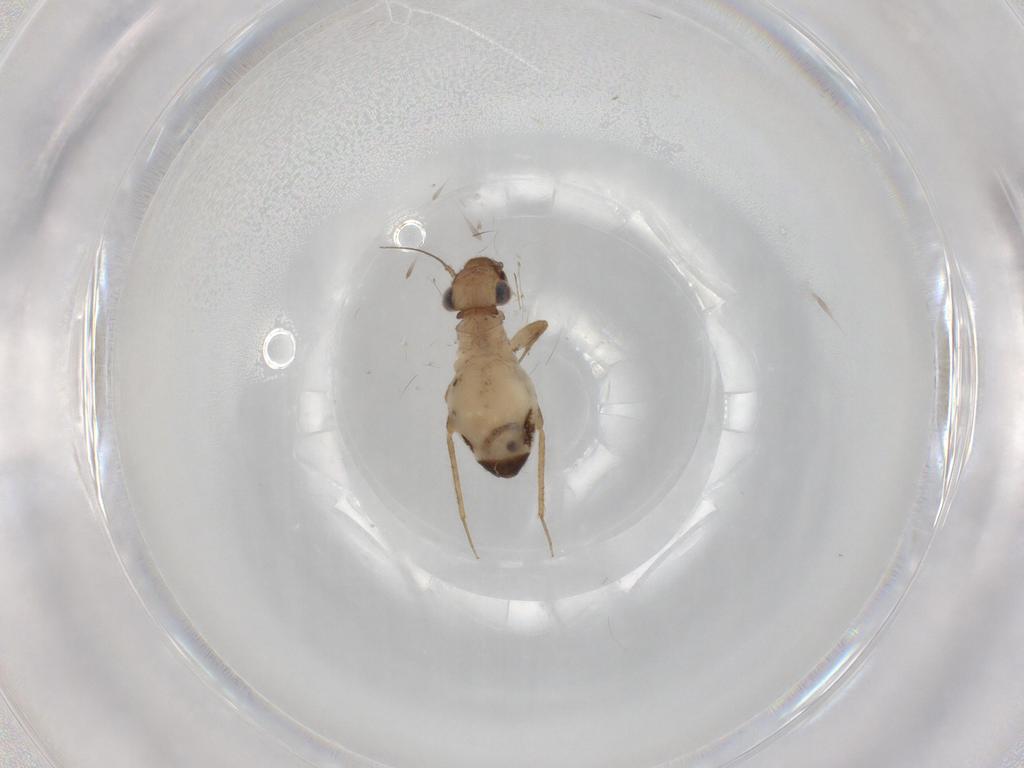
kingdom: Animalia
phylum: Arthropoda
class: Insecta
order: Psocodea
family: Lepidopsocidae
